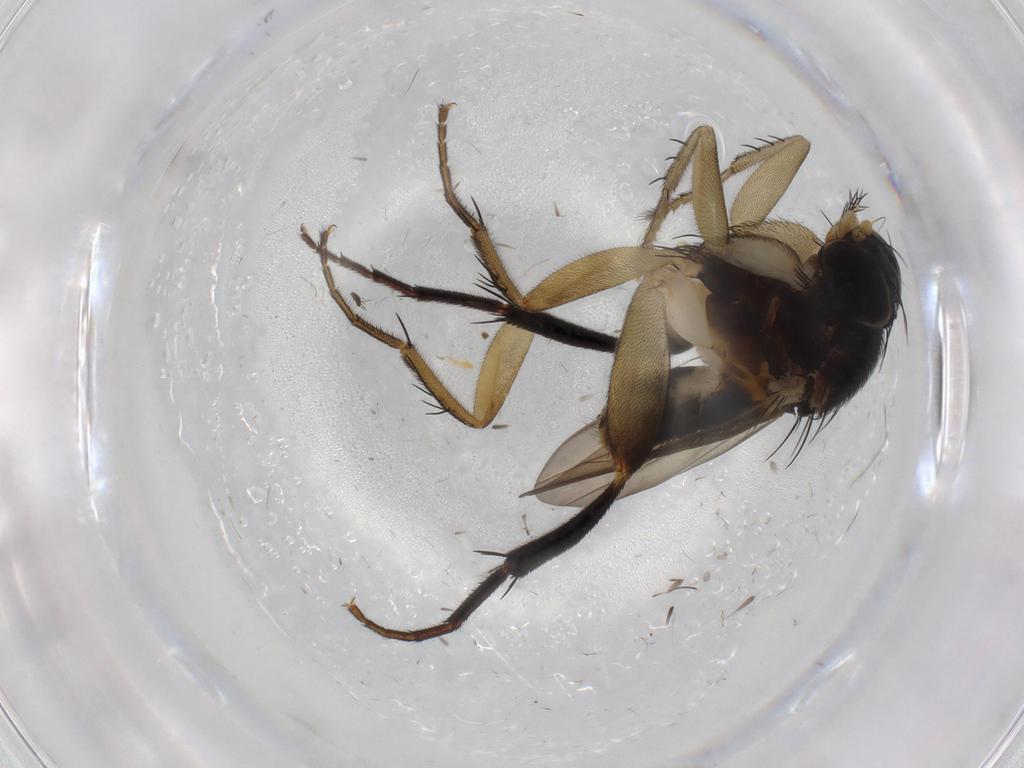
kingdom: Animalia
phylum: Arthropoda
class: Insecta
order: Diptera
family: Phoridae
